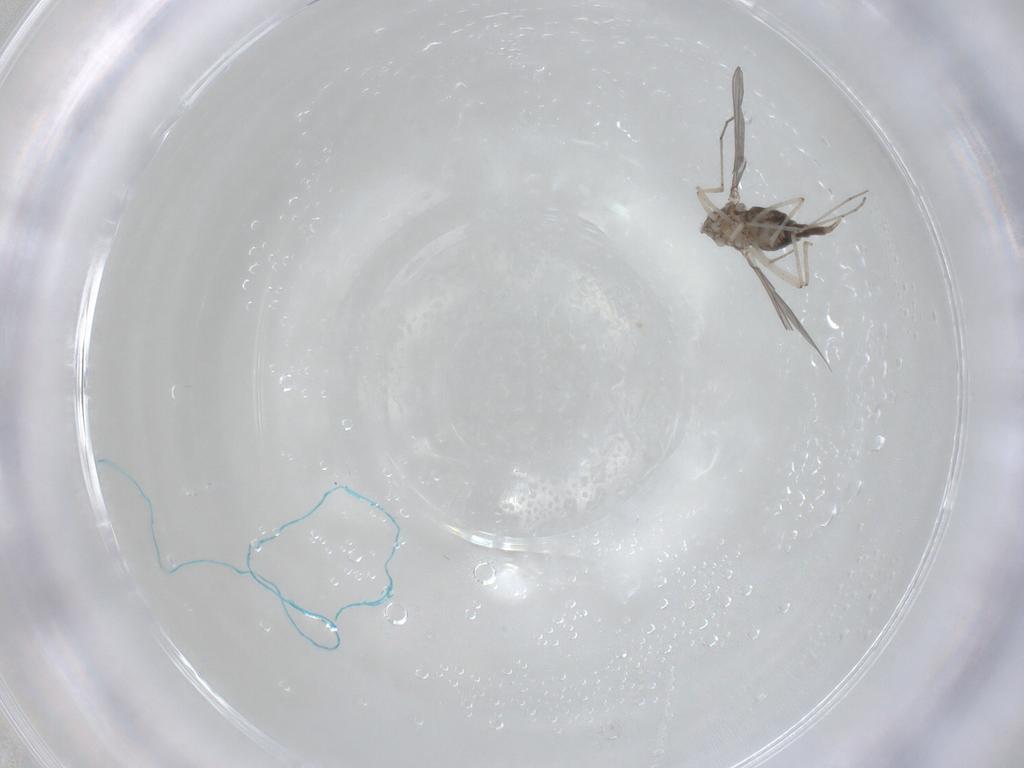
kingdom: Animalia
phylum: Arthropoda
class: Insecta
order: Diptera
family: Cecidomyiidae
